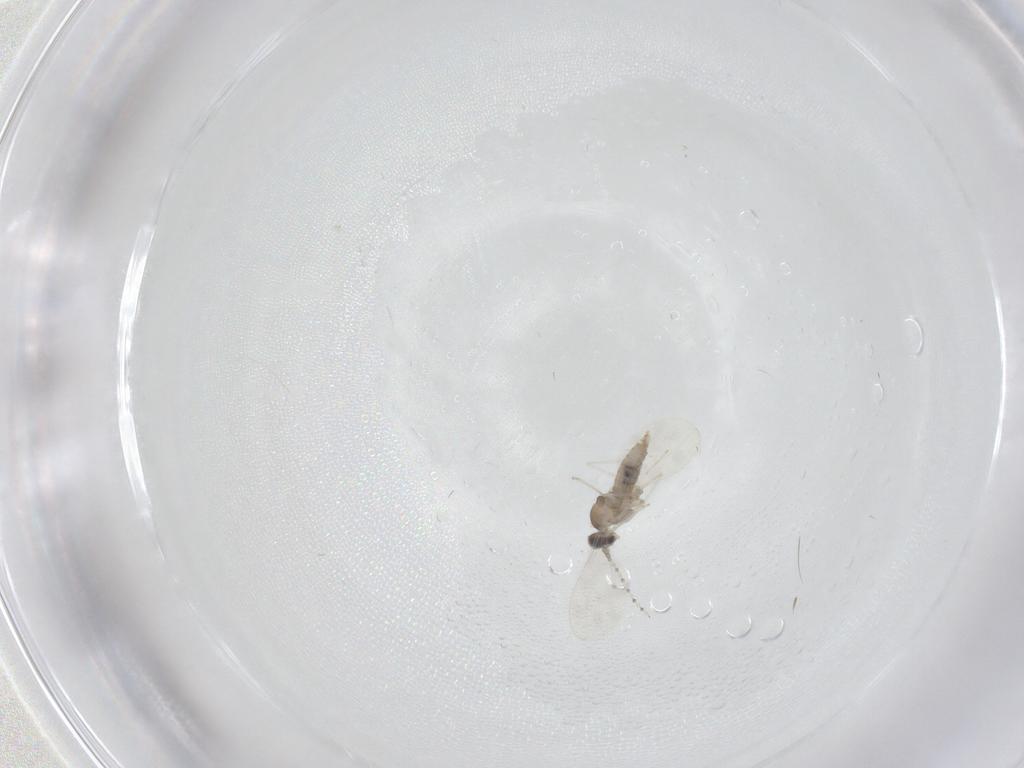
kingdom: Animalia
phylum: Arthropoda
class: Insecta
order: Diptera
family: Cecidomyiidae
